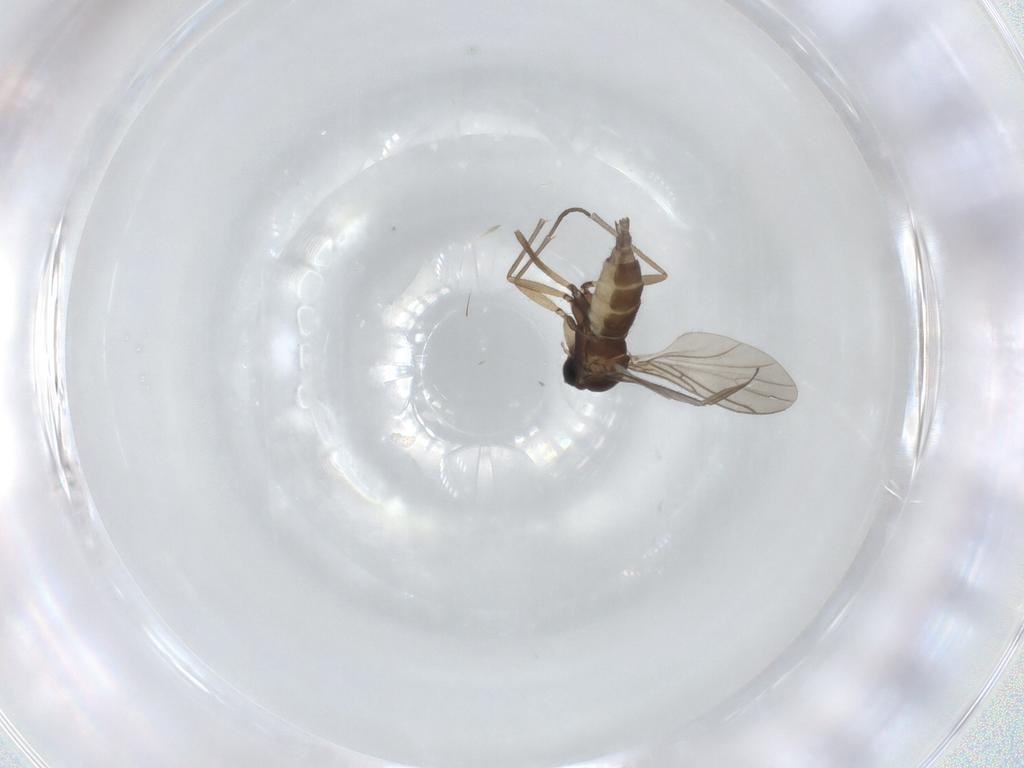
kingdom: Animalia
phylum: Arthropoda
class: Insecta
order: Diptera
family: Sciaridae
